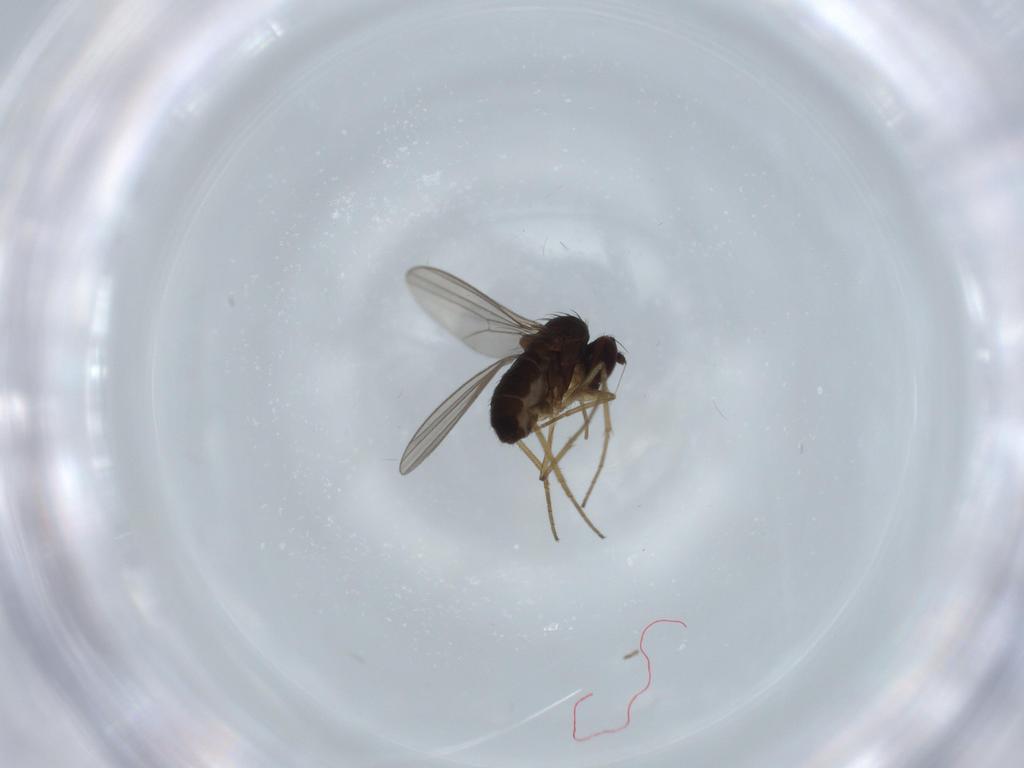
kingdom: Animalia
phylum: Arthropoda
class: Insecta
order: Diptera
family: Dolichopodidae
